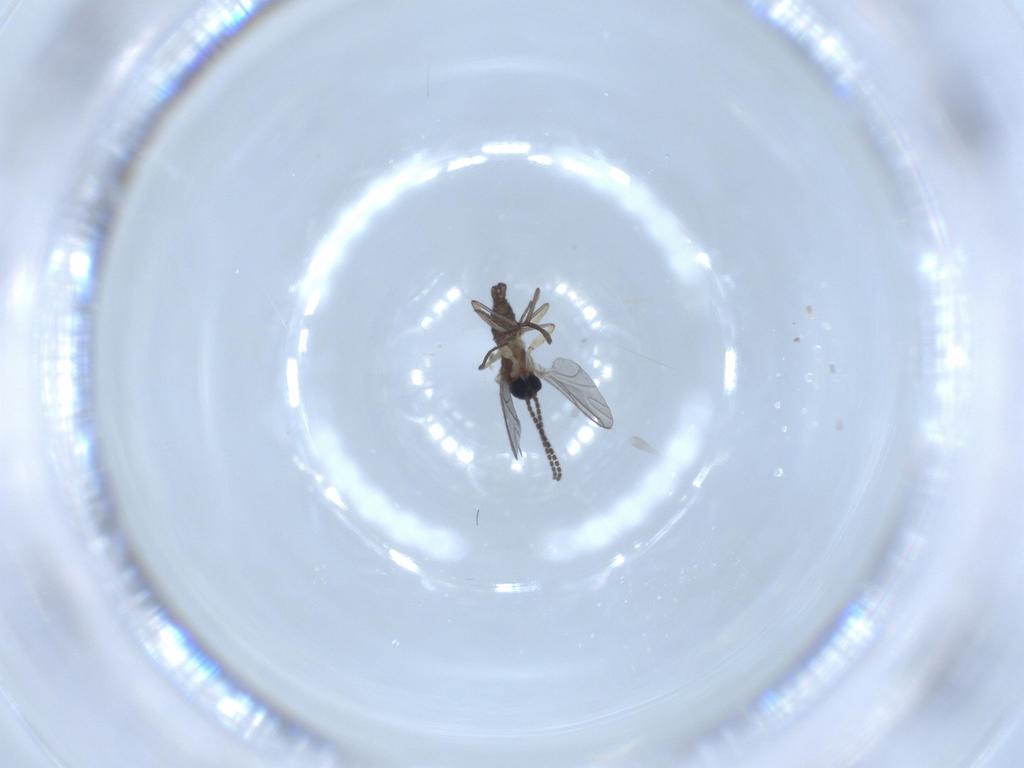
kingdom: Animalia
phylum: Arthropoda
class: Insecta
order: Diptera
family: Sciaridae
